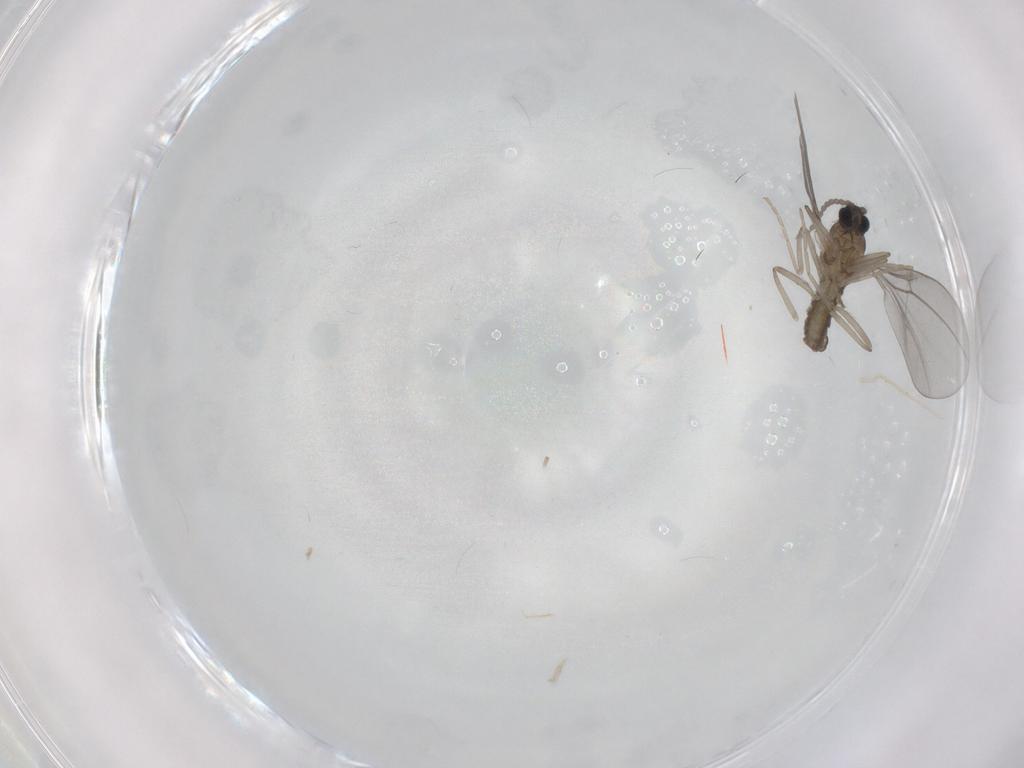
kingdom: Animalia
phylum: Arthropoda
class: Insecta
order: Diptera
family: Cecidomyiidae
